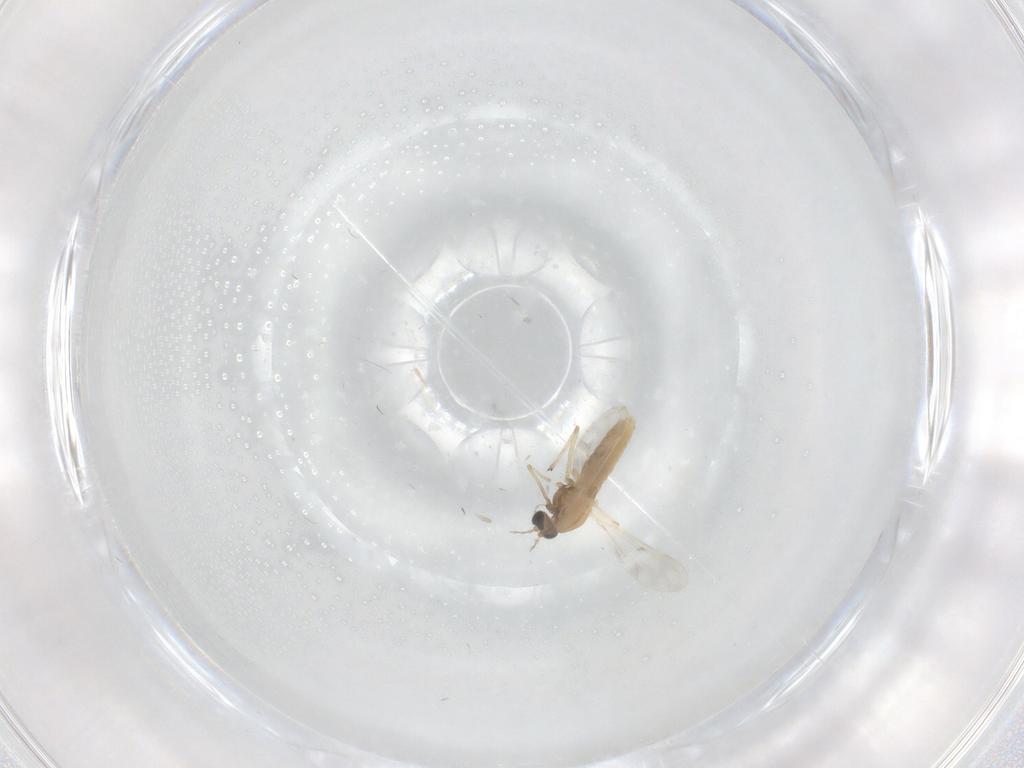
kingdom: Animalia
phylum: Arthropoda
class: Insecta
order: Diptera
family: Chironomidae
